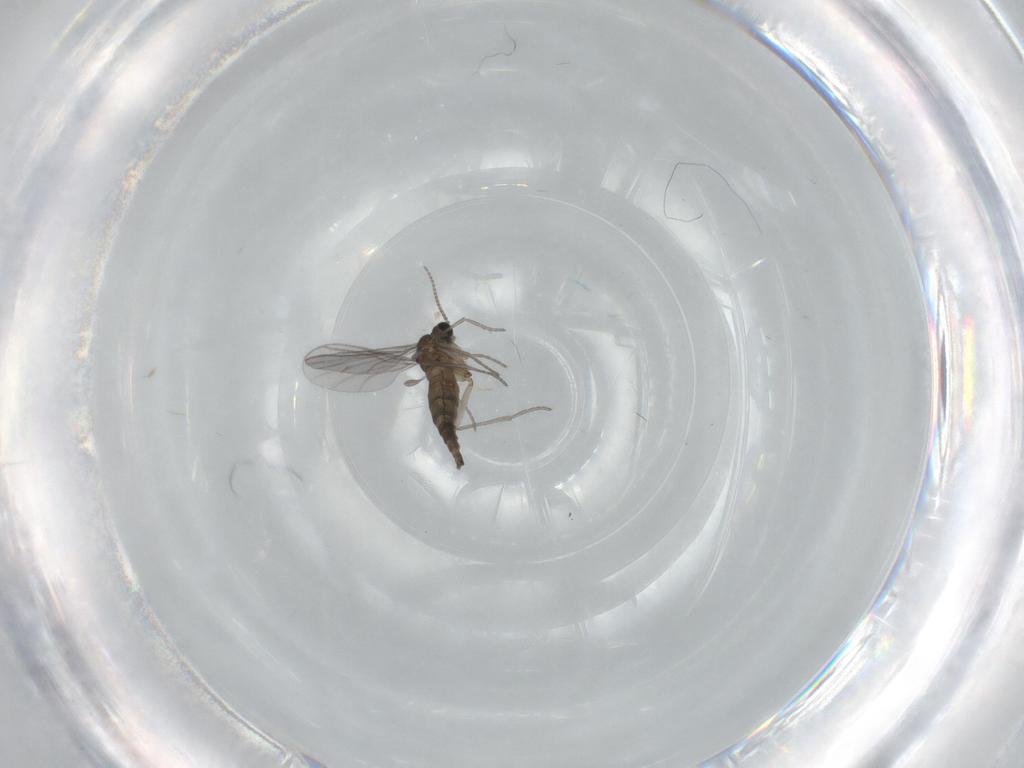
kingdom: Animalia
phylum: Arthropoda
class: Insecta
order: Diptera
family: Sciaridae
